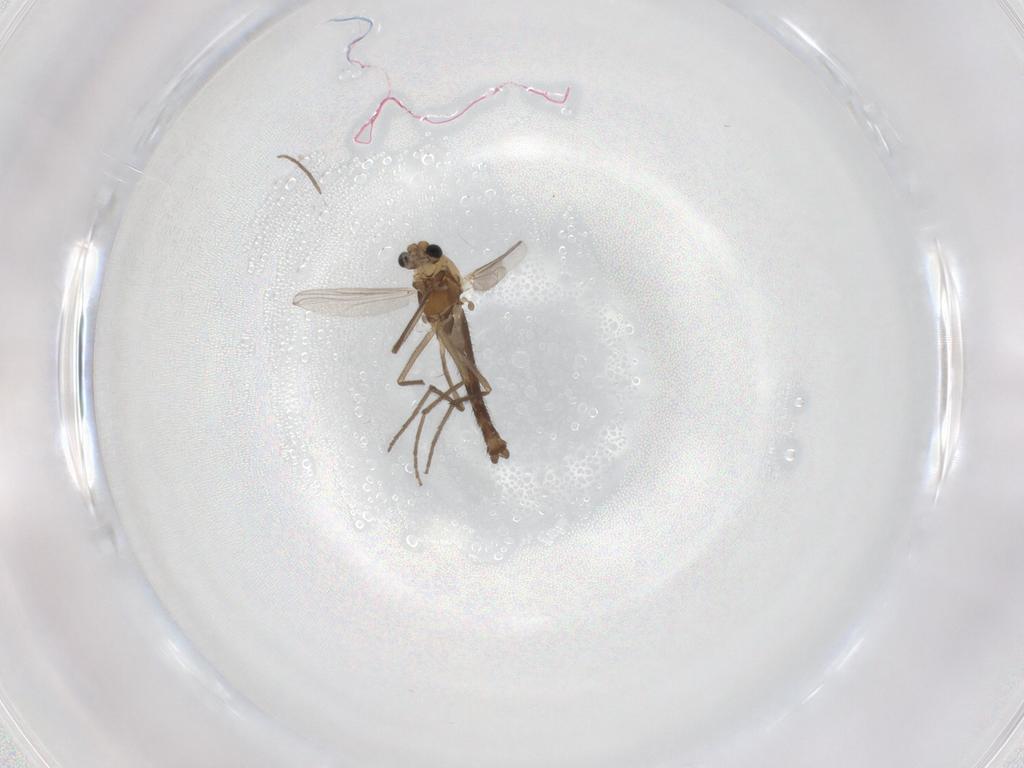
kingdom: Animalia
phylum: Arthropoda
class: Insecta
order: Diptera
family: Chironomidae
